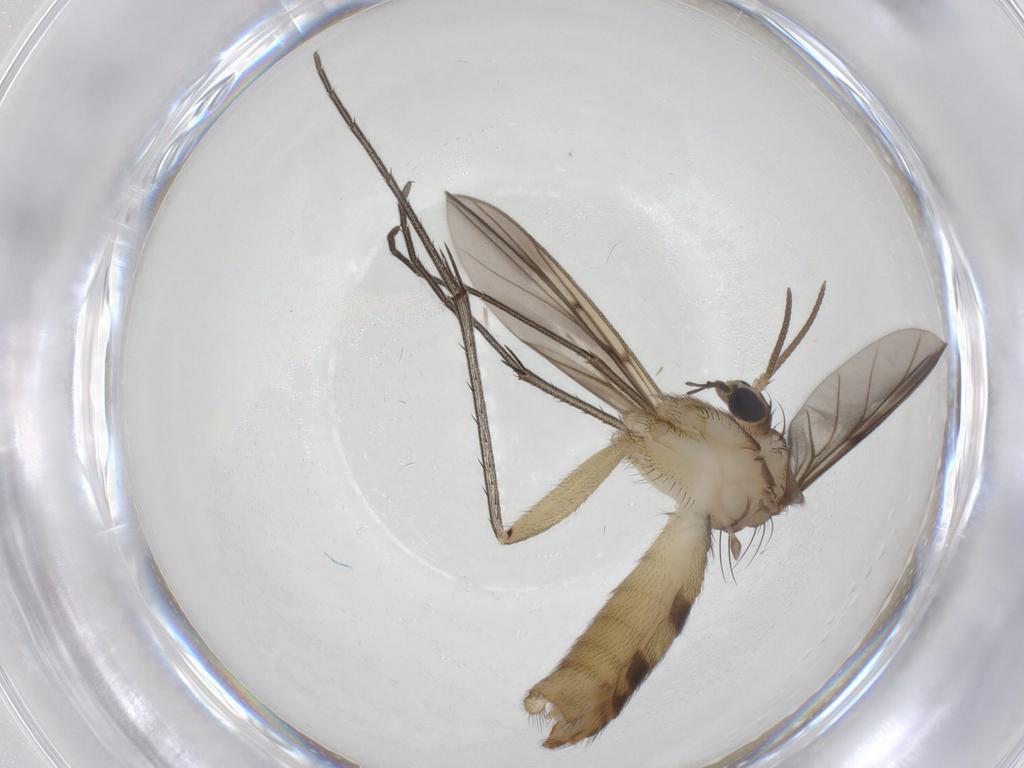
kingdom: Animalia
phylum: Arthropoda
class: Insecta
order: Diptera
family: Mycetophilidae
